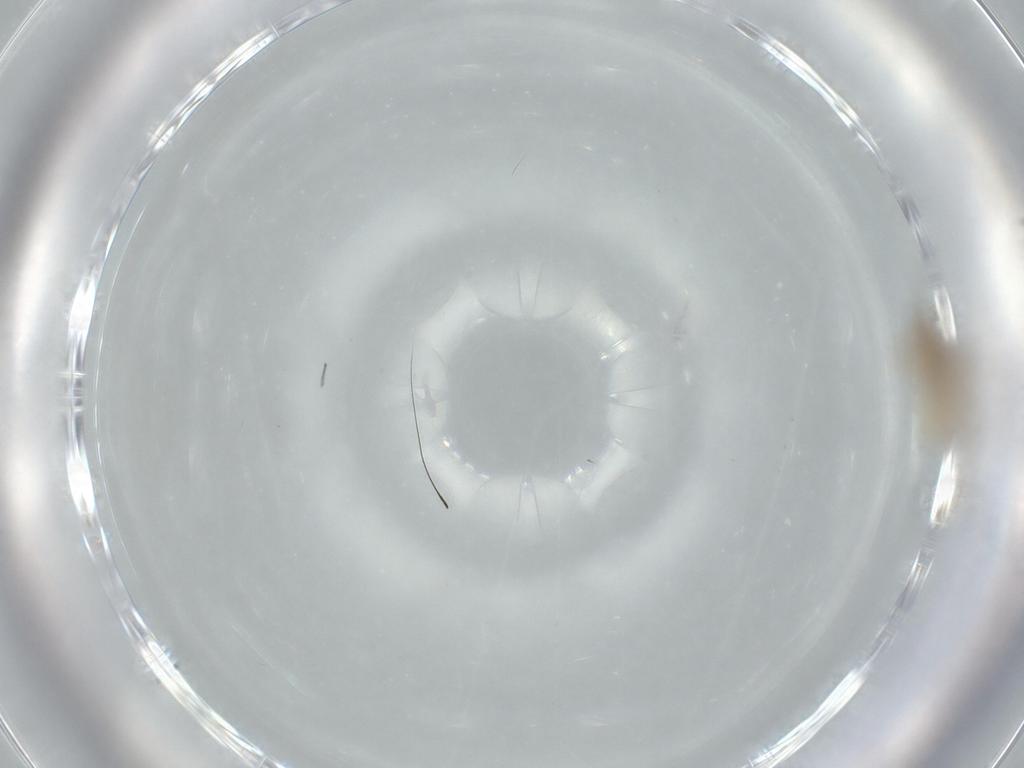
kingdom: Animalia
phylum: Arthropoda
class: Insecta
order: Diptera
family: Dolichopodidae
